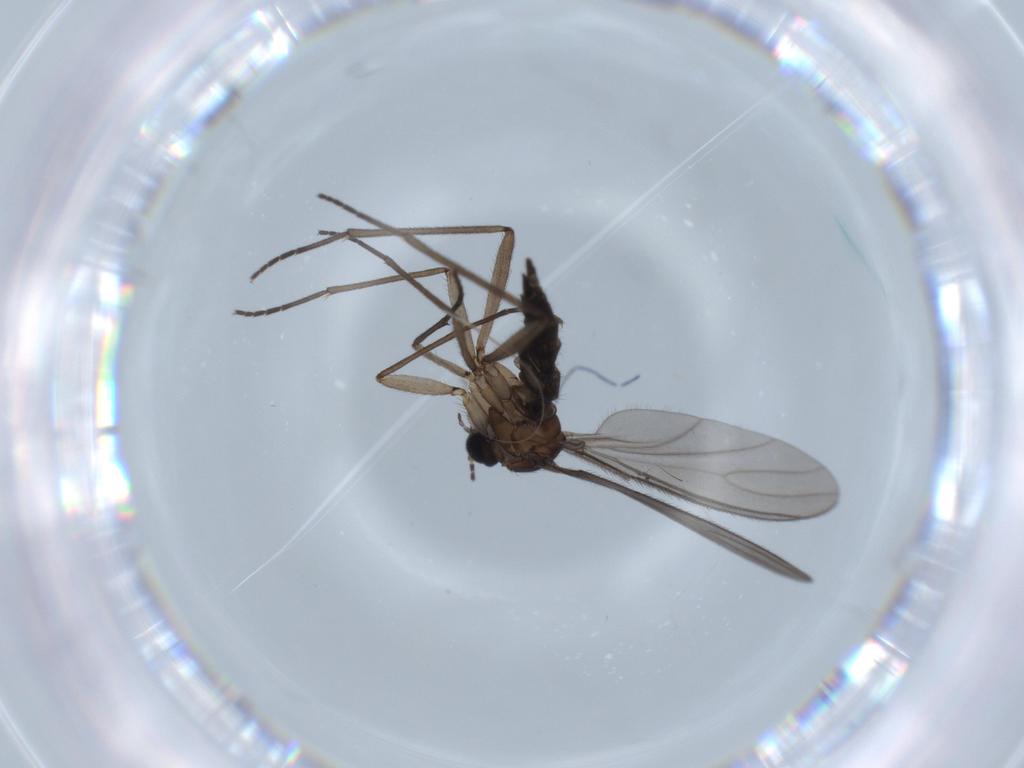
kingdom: Animalia
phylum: Arthropoda
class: Insecta
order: Diptera
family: Sciaridae
